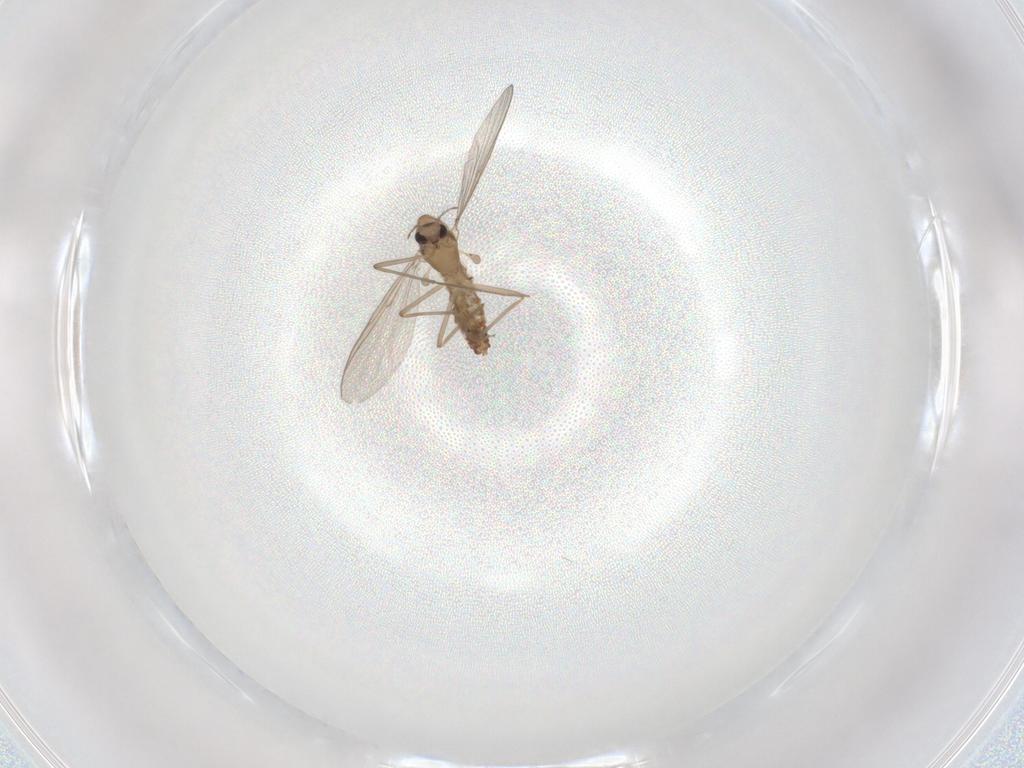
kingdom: Animalia
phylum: Arthropoda
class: Insecta
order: Diptera
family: Chironomidae
